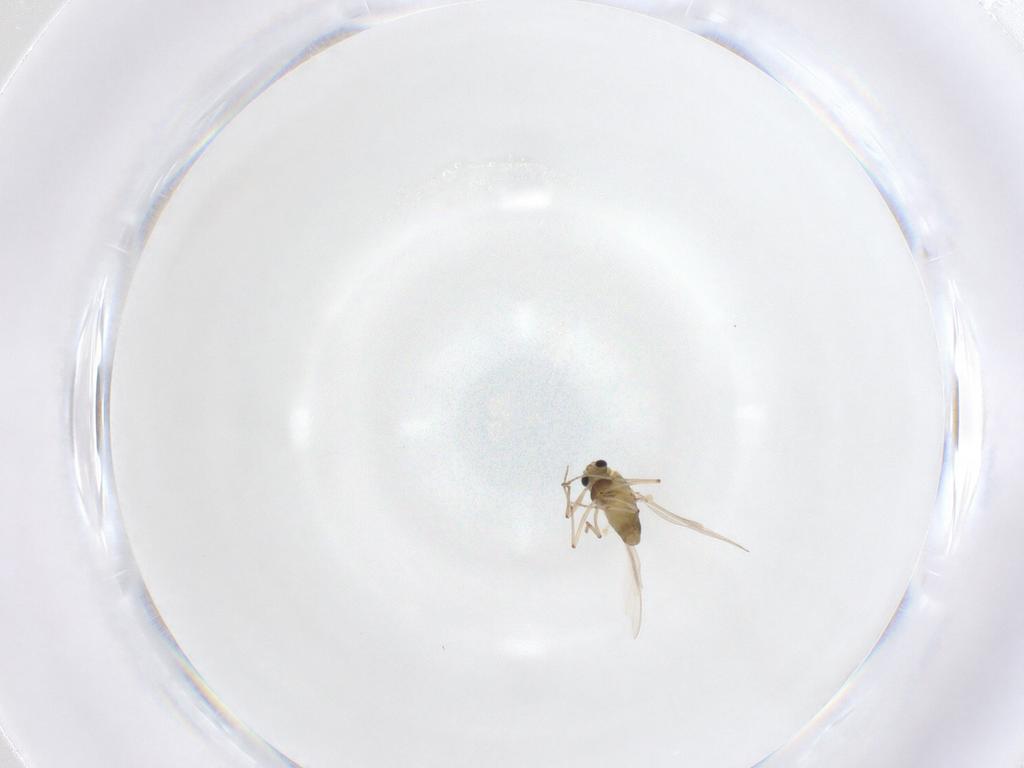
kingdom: Animalia
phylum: Arthropoda
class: Insecta
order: Diptera
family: Chironomidae
